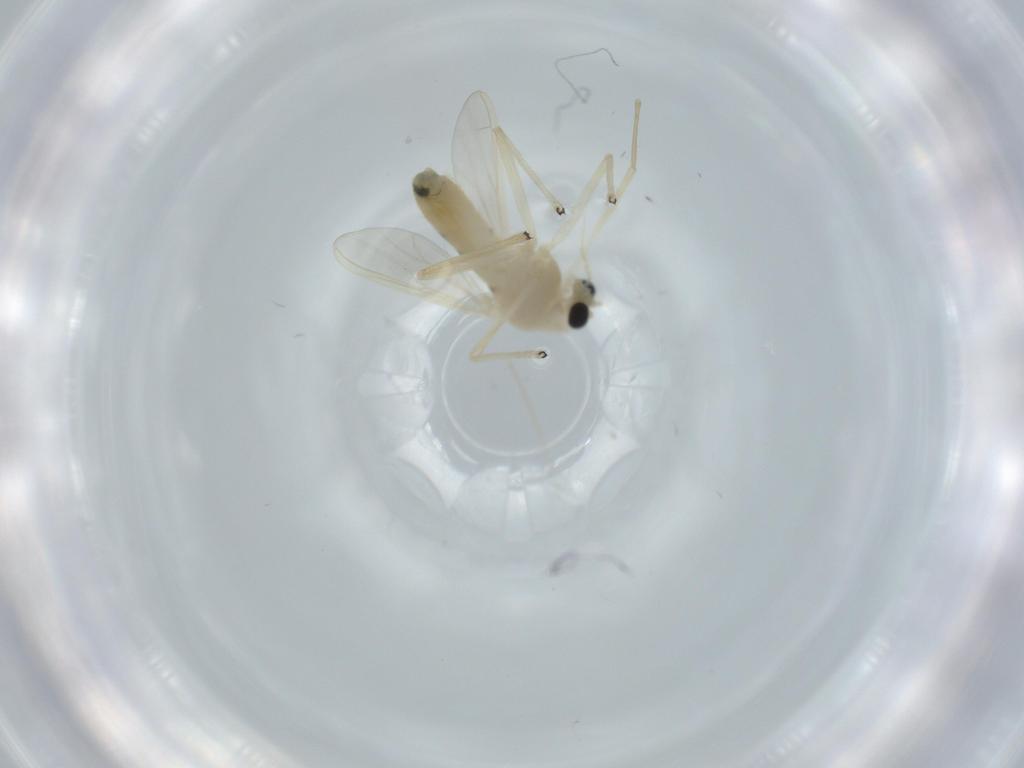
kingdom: Animalia
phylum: Arthropoda
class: Insecta
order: Diptera
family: Chironomidae
